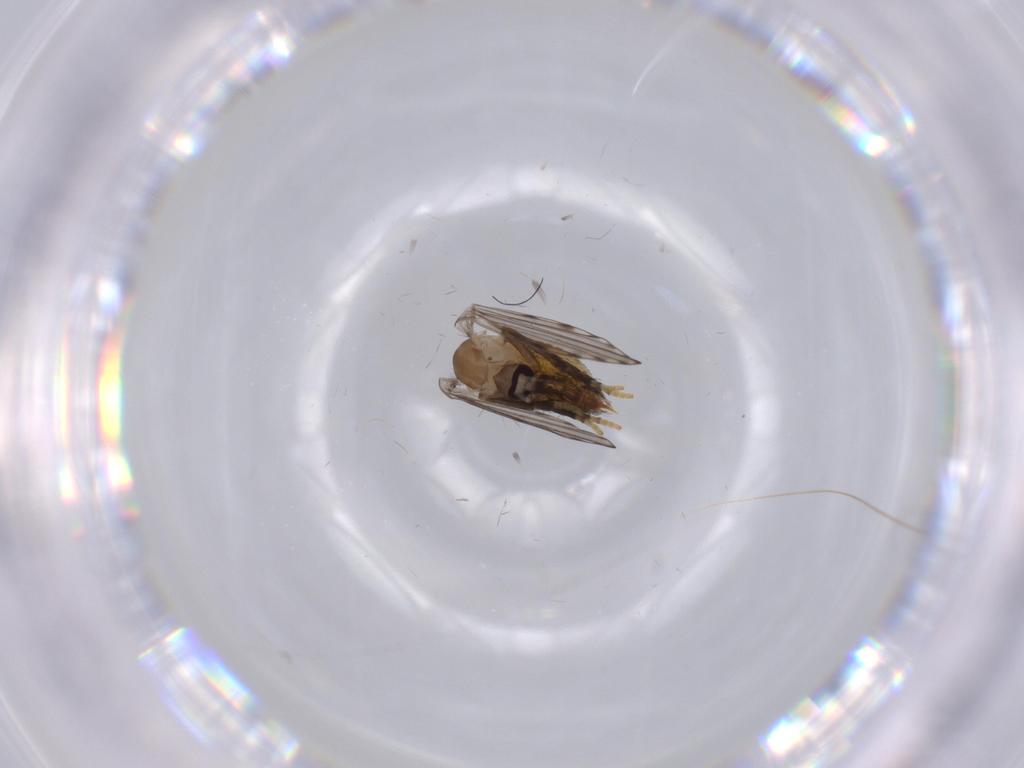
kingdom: Animalia
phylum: Arthropoda
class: Insecta
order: Diptera
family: Psychodidae
